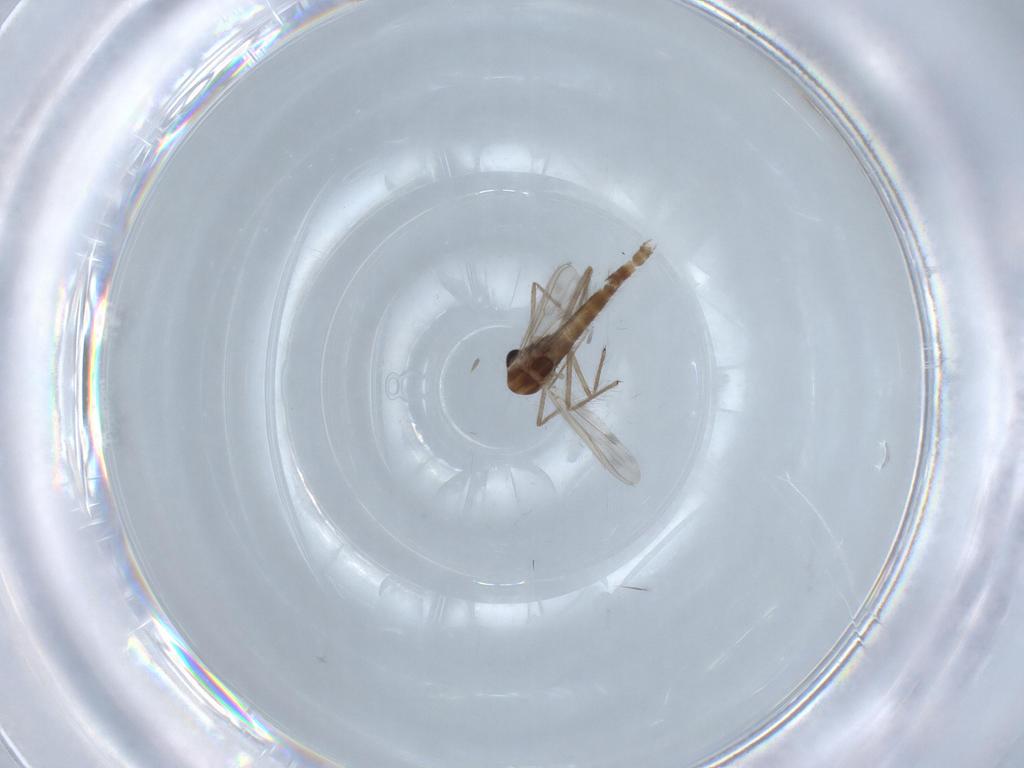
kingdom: Animalia
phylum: Arthropoda
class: Insecta
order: Diptera
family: Chironomidae
